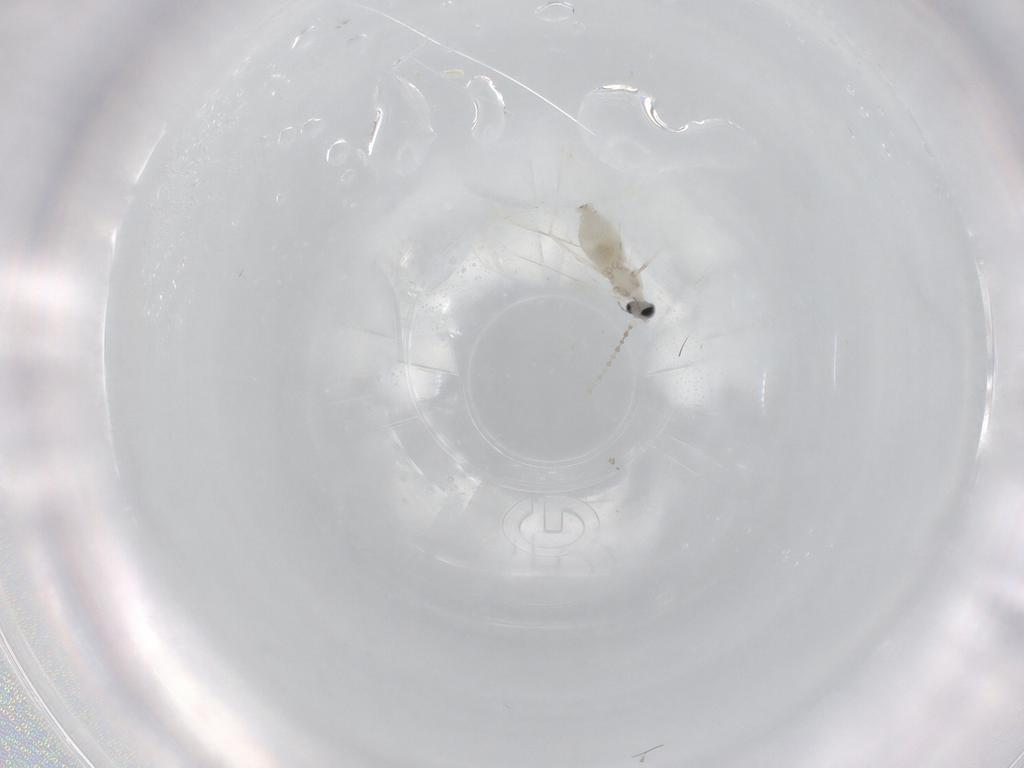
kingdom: Animalia
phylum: Arthropoda
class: Insecta
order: Diptera
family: Cecidomyiidae
